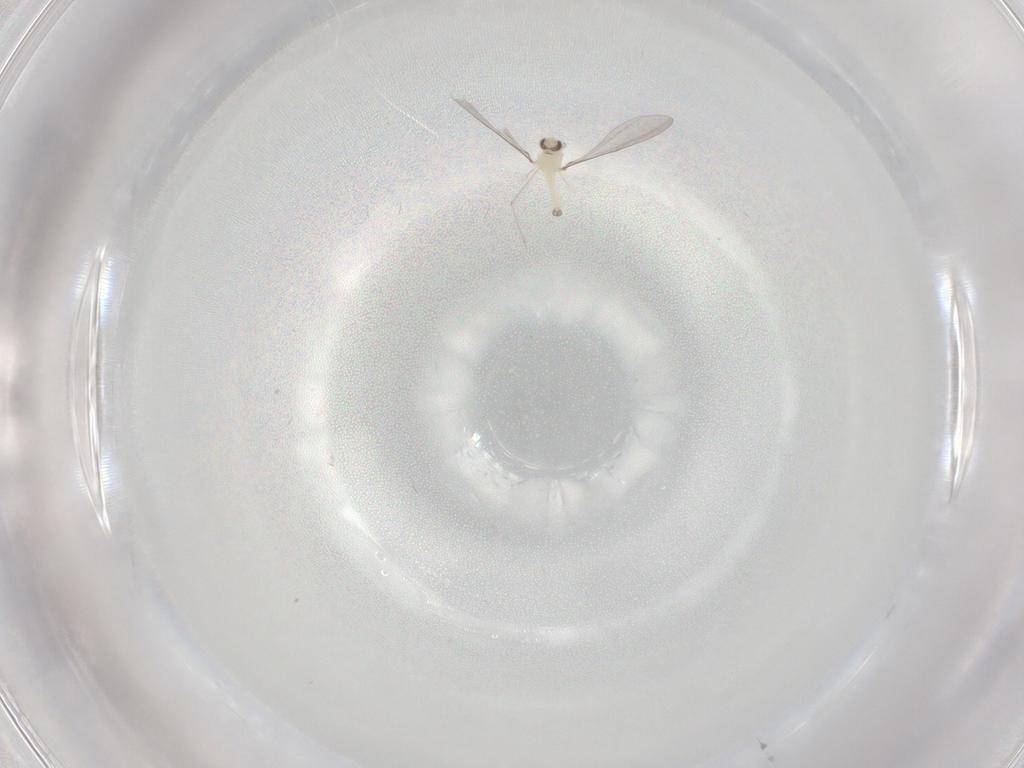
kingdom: Animalia
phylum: Arthropoda
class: Insecta
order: Diptera
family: Cecidomyiidae
